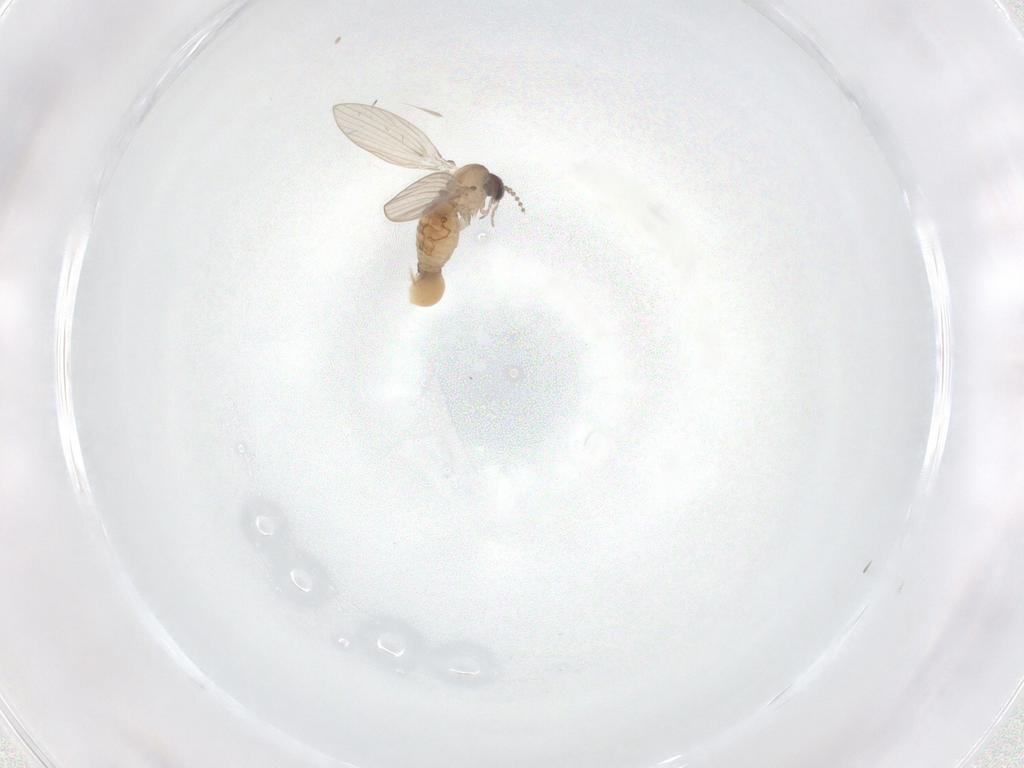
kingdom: Animalia
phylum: Arthropoda
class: Insecta
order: Diptera
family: Psychodidae
